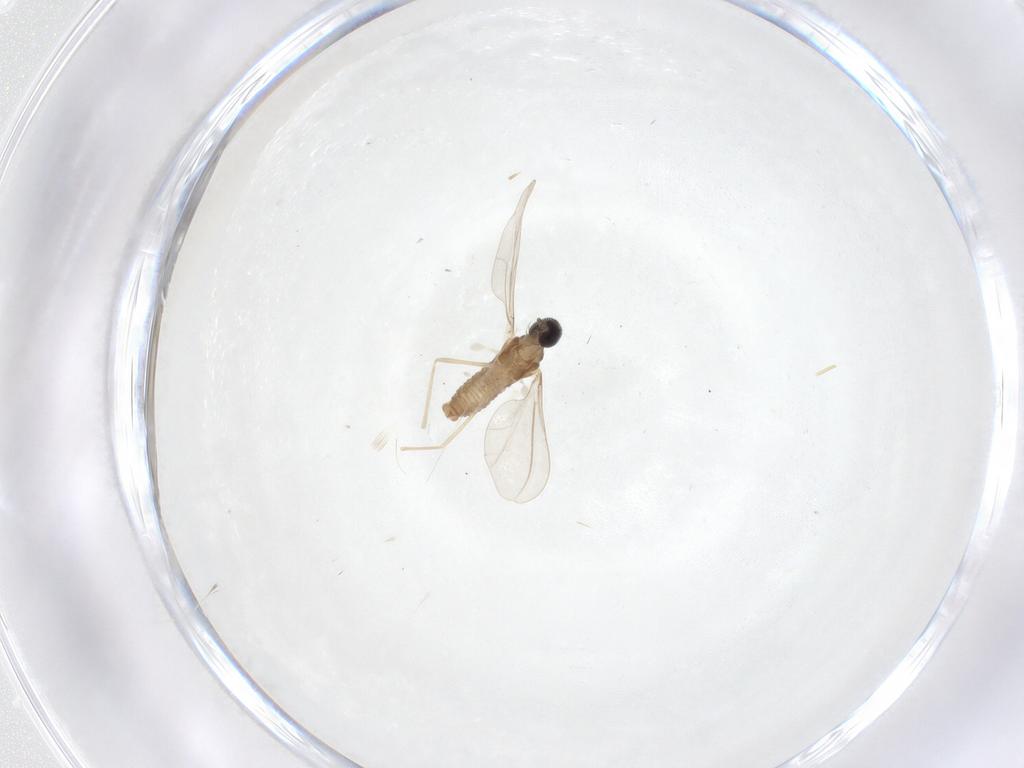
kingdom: Animalia
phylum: Arthropoda
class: Insecta
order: Diptera
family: Cecidomyiidae
